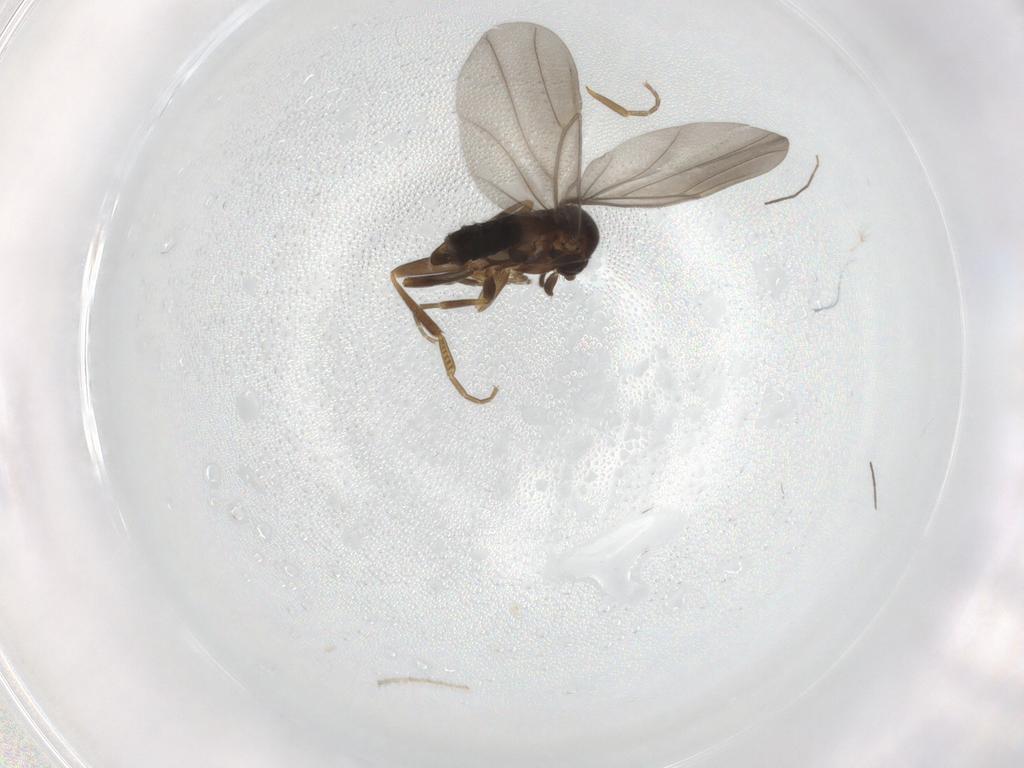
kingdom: Animalia
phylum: Arthropoda
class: Insecta
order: Diptera
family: Chironomidae
